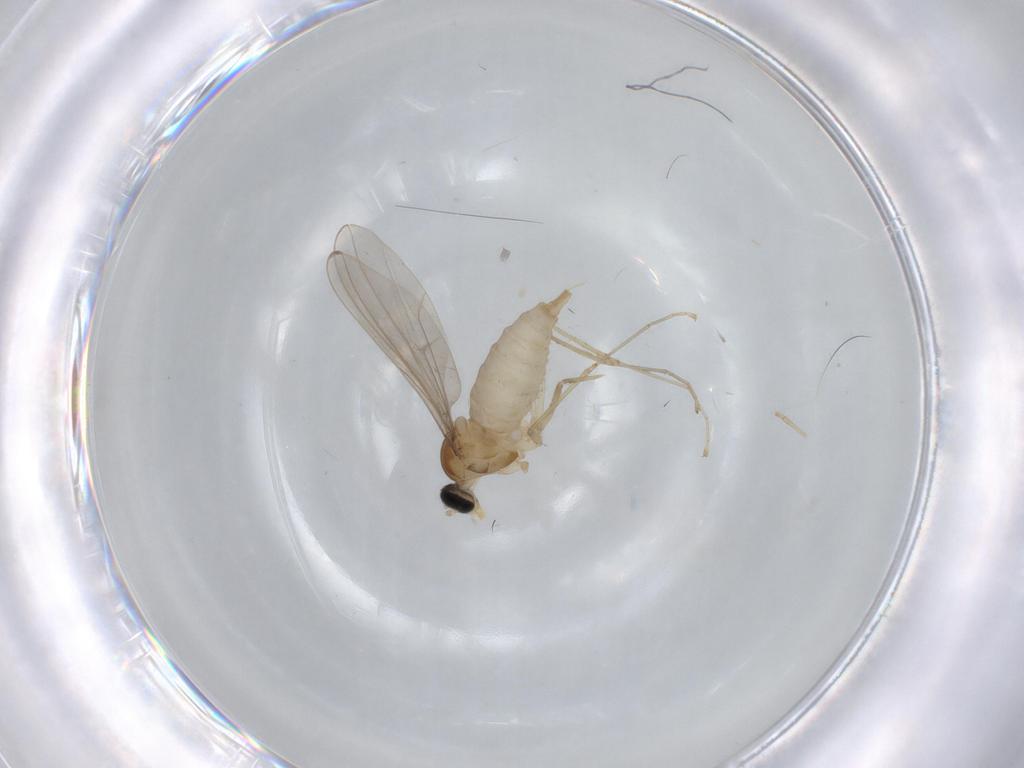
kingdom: Animalia
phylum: Arthropoda
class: Insecta
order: Diptera
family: Cecidomyiidae
